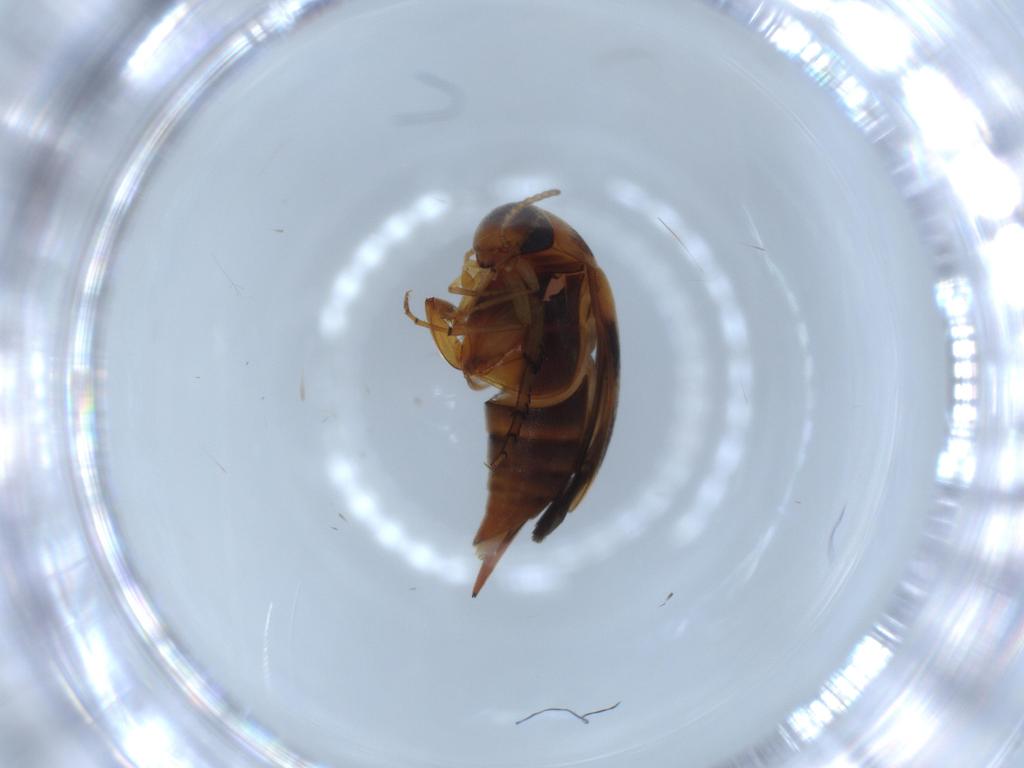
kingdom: Animalia
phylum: Arthropoda
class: Insecta
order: Coleoptera
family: Mordellidae
